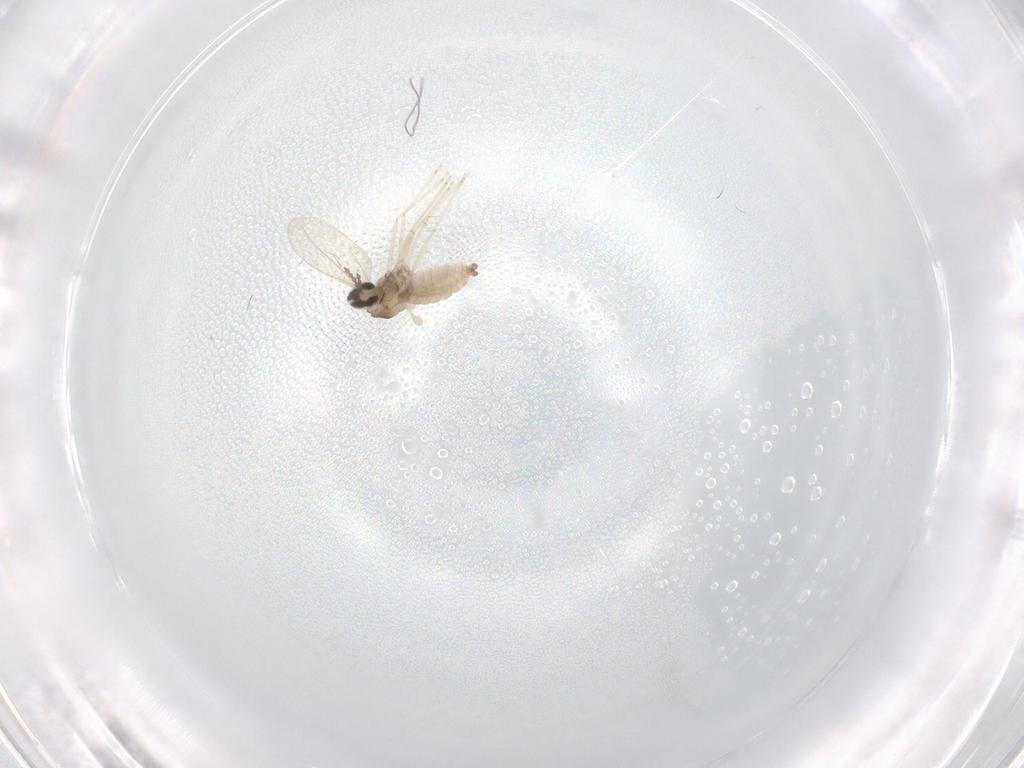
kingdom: Animalia
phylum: Arthropoda
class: Insecta
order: Diptera
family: Cecidomyiidae
